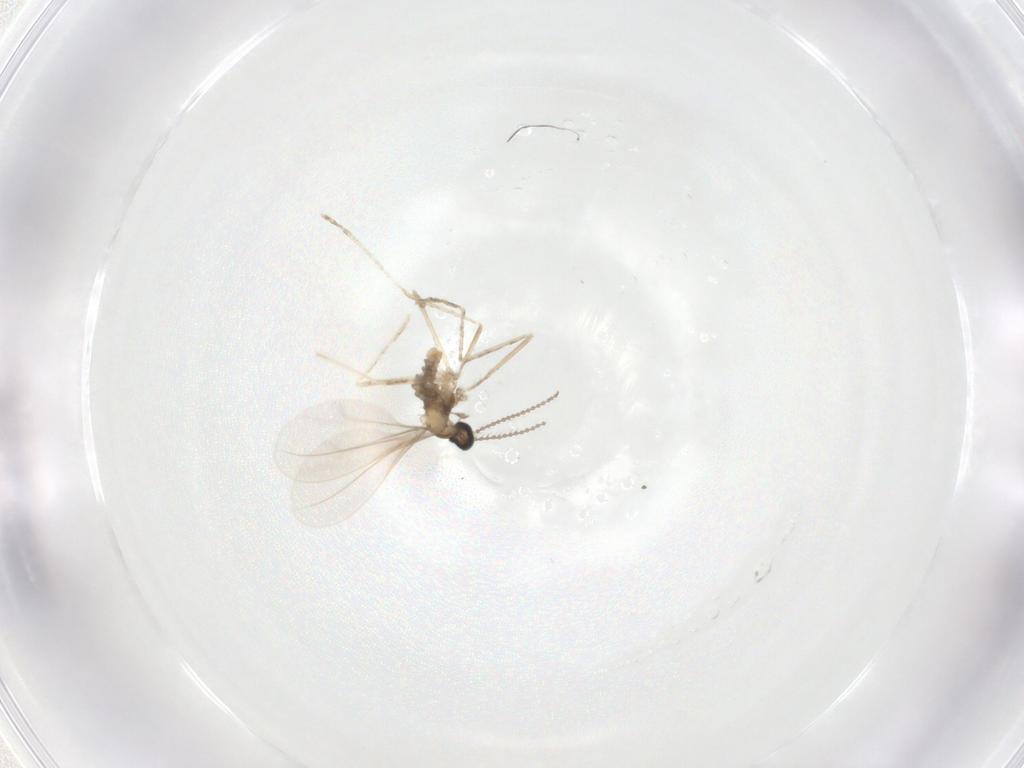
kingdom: Animalia
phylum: Arthropoda
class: Insecta
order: Diptera
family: Cecidomyiidae
